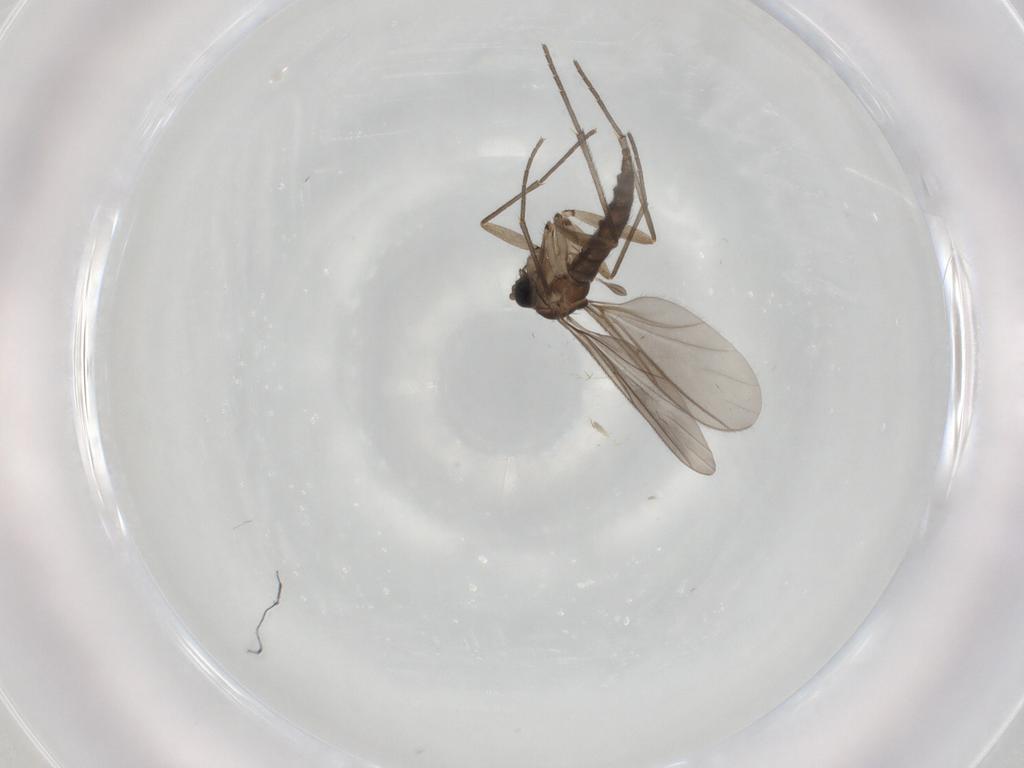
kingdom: Animalia
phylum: Arthropoda
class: Insecta
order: Diptera
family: Sciaridae
